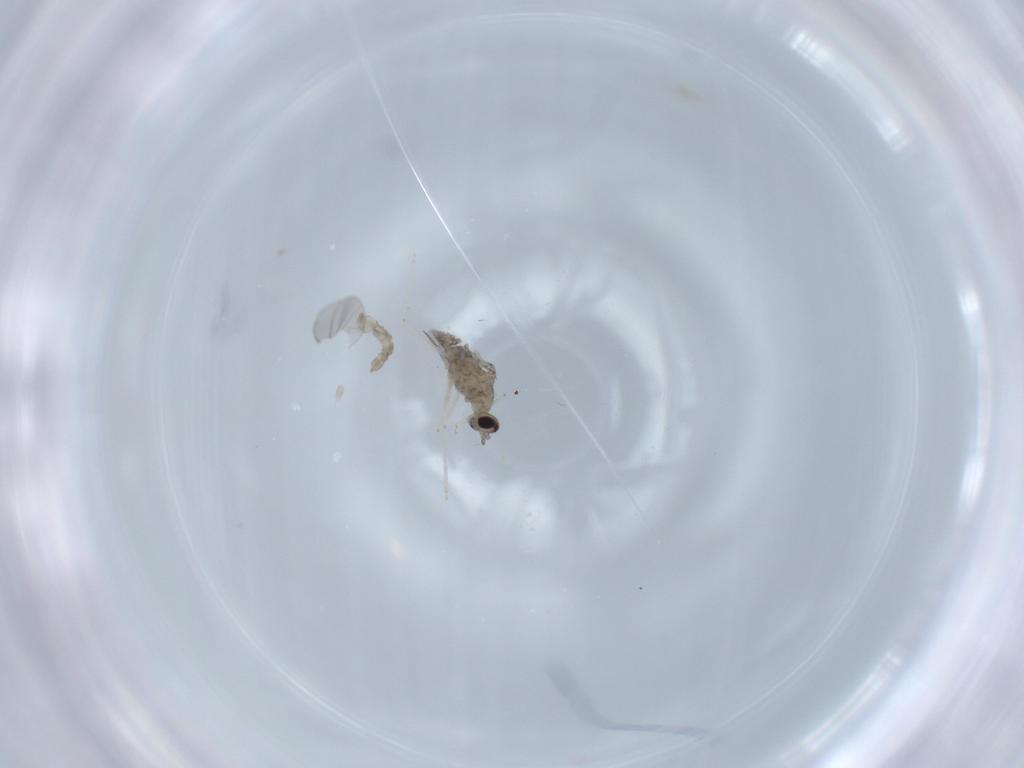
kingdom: Animalia
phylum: Arthropoda
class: Insecta
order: Diptera
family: Cecidomyiidae
